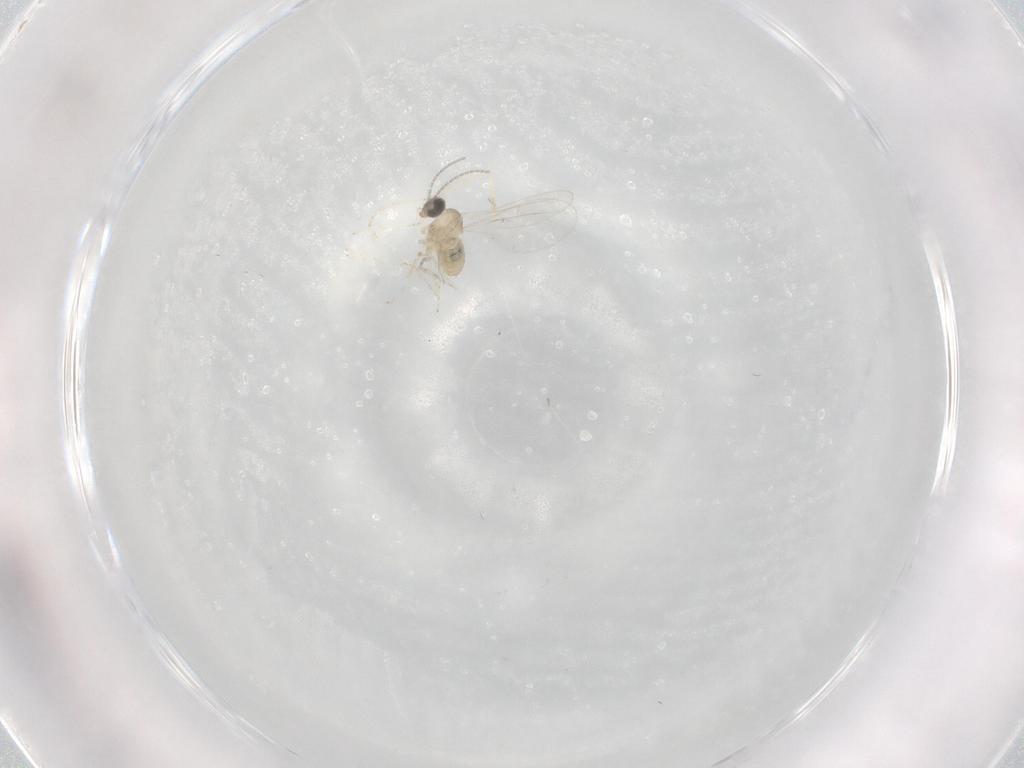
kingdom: Animalia
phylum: Arthropoda
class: Insecta
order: Diptera
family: Cecidomyiidae
